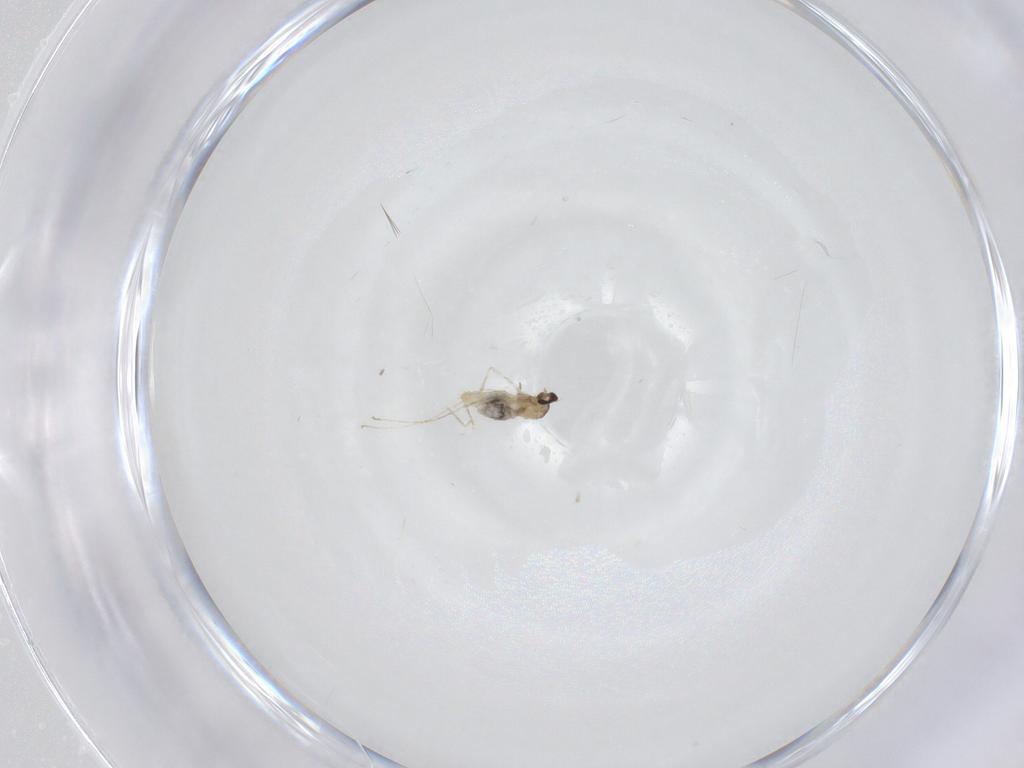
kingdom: Animalia
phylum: Arthropoda
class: Insecta
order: Diptera
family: Cecidomyiidae
